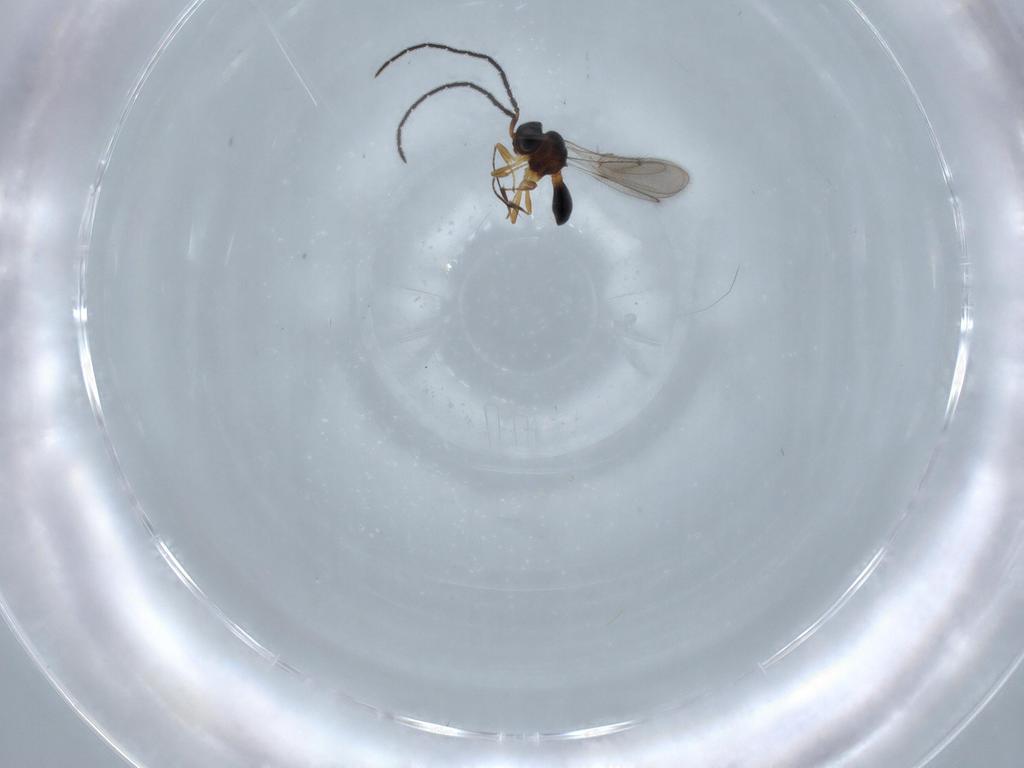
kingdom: Animalia
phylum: Arthropoda
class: Insecta
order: Hymenoptera
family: Scelionidae
